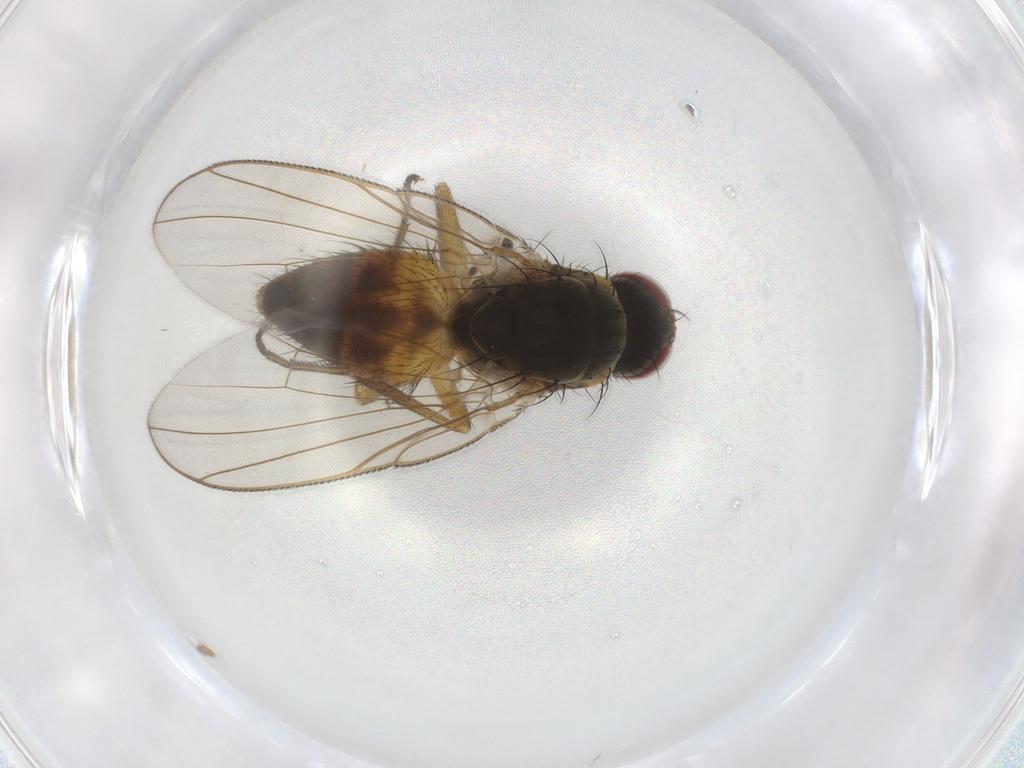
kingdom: Animalia
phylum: Arthropoda
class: Insecta
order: Diptera
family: Muscidae
